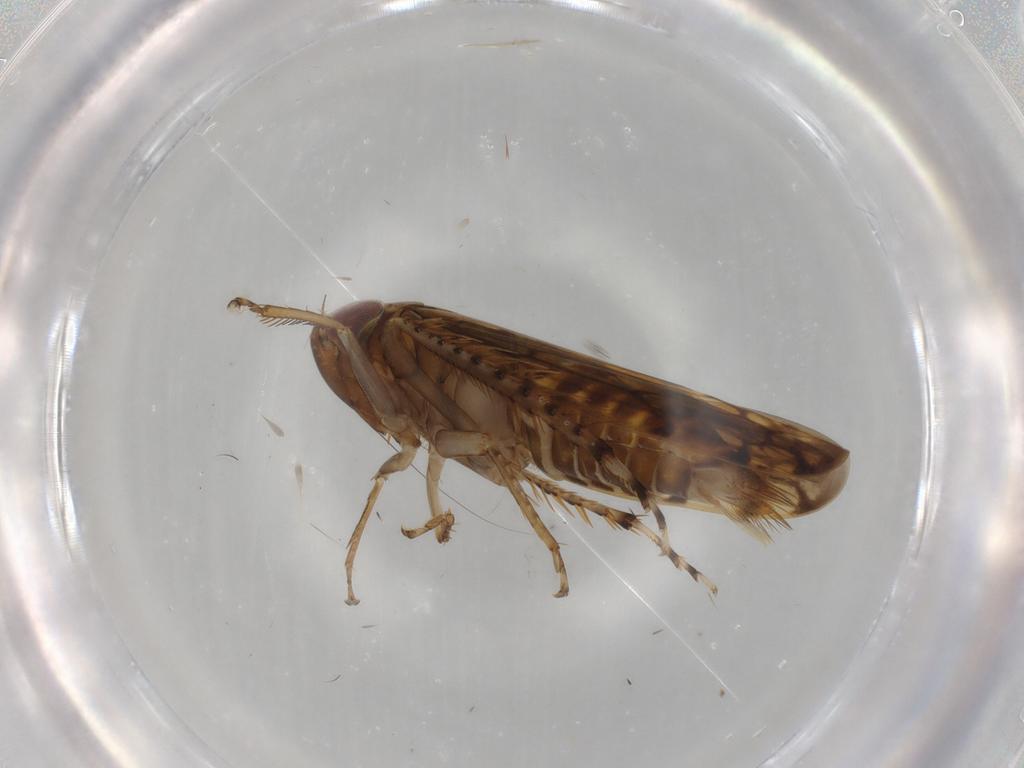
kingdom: Animalia
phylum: Arthropoda
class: Insecta
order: Hemiptera
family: Cicadellidae
